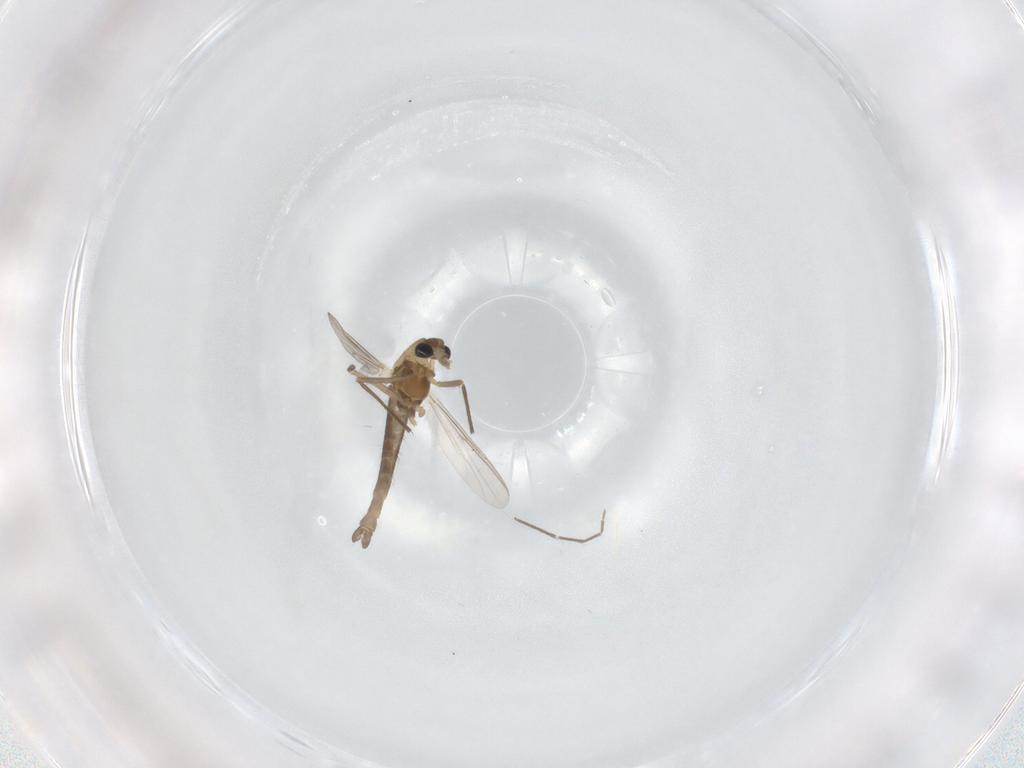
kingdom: Animalia
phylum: Arthropoda
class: Insecta
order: Diptera
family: Chironomidae
